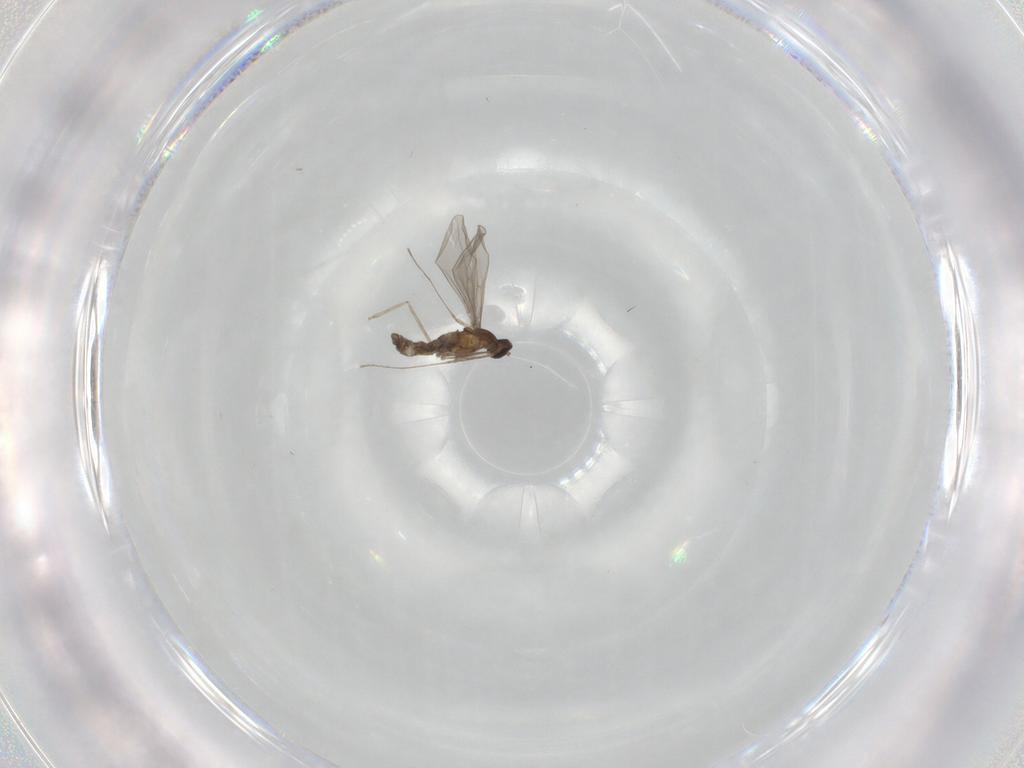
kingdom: Animalia
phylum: Arthropoda
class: Insecta
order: Diptera
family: Cecidomyiidae
